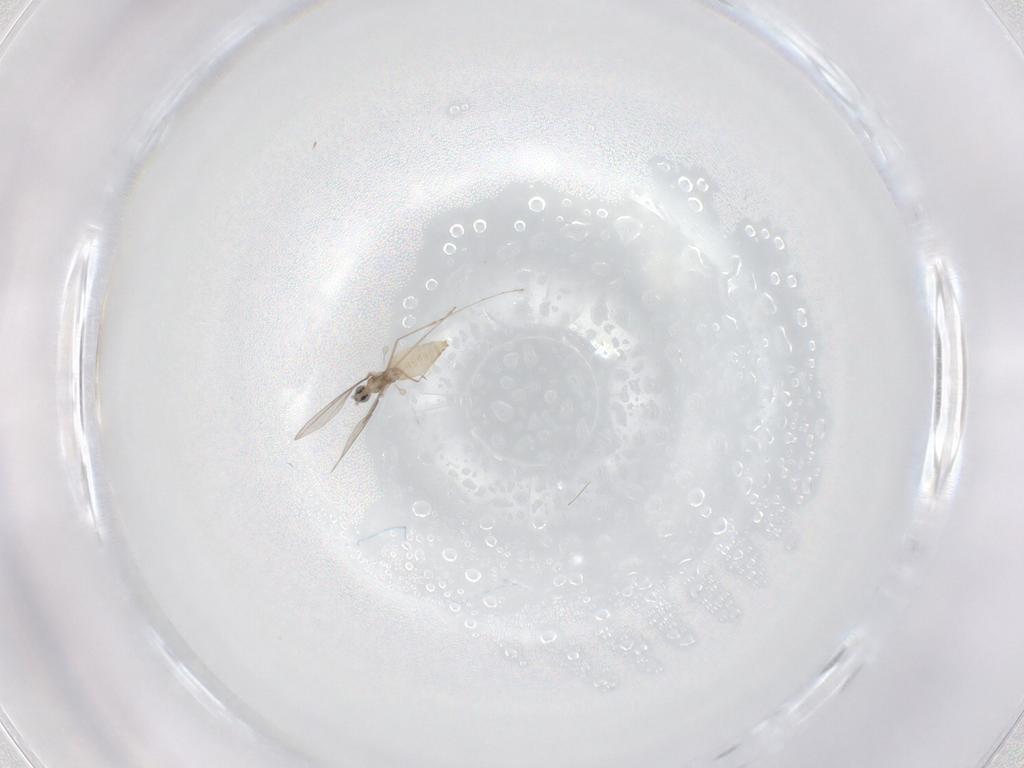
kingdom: Animalia
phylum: Arthropoda
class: Insecta
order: Diptera
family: Cecidomyiidae
